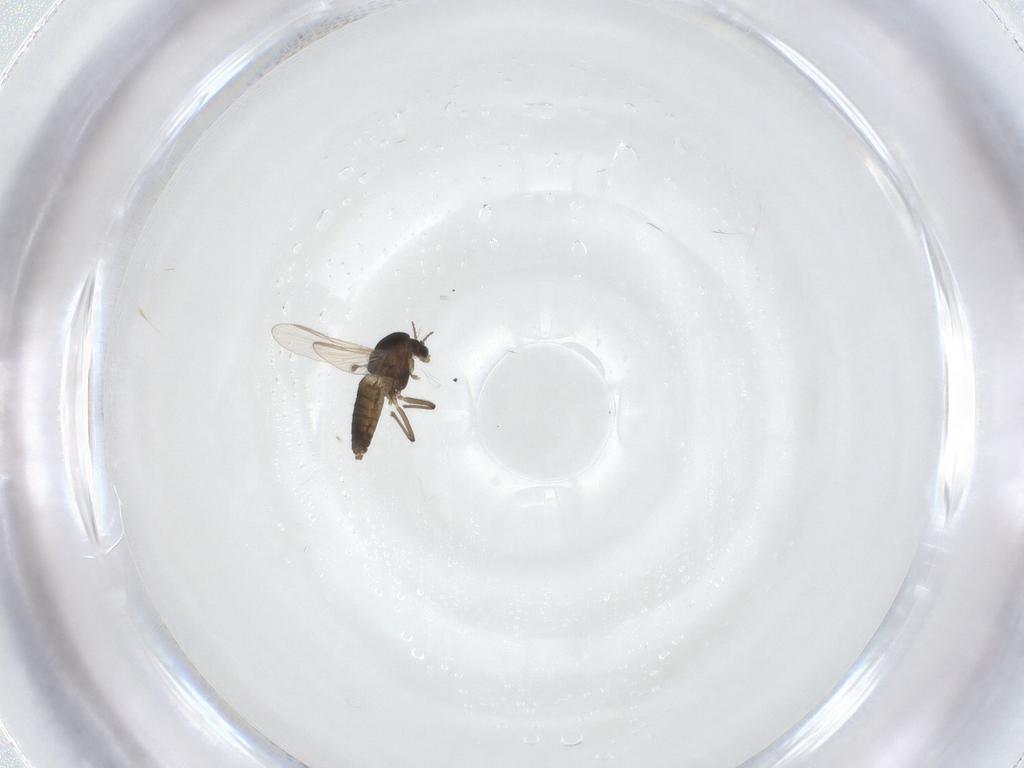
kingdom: Animalia
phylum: Arthropoda
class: Insecta
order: Diptera
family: Chironomidae
